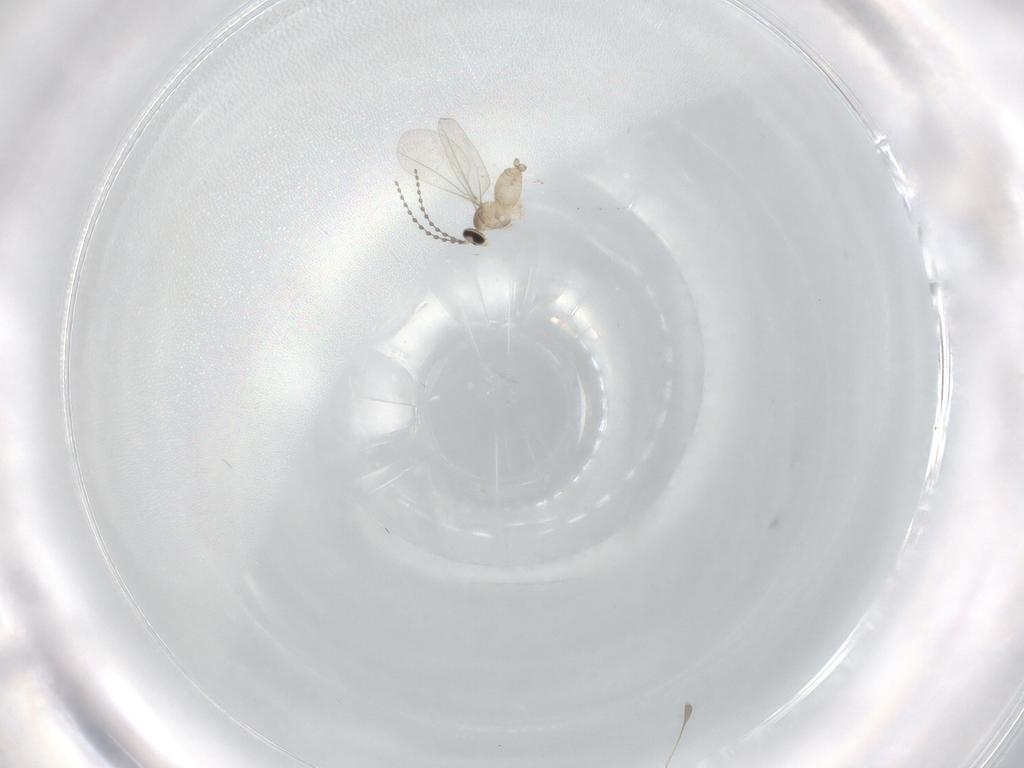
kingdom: Animalia
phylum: Arthropoda
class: Insecta
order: Diptera
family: Cecidomyiidae
